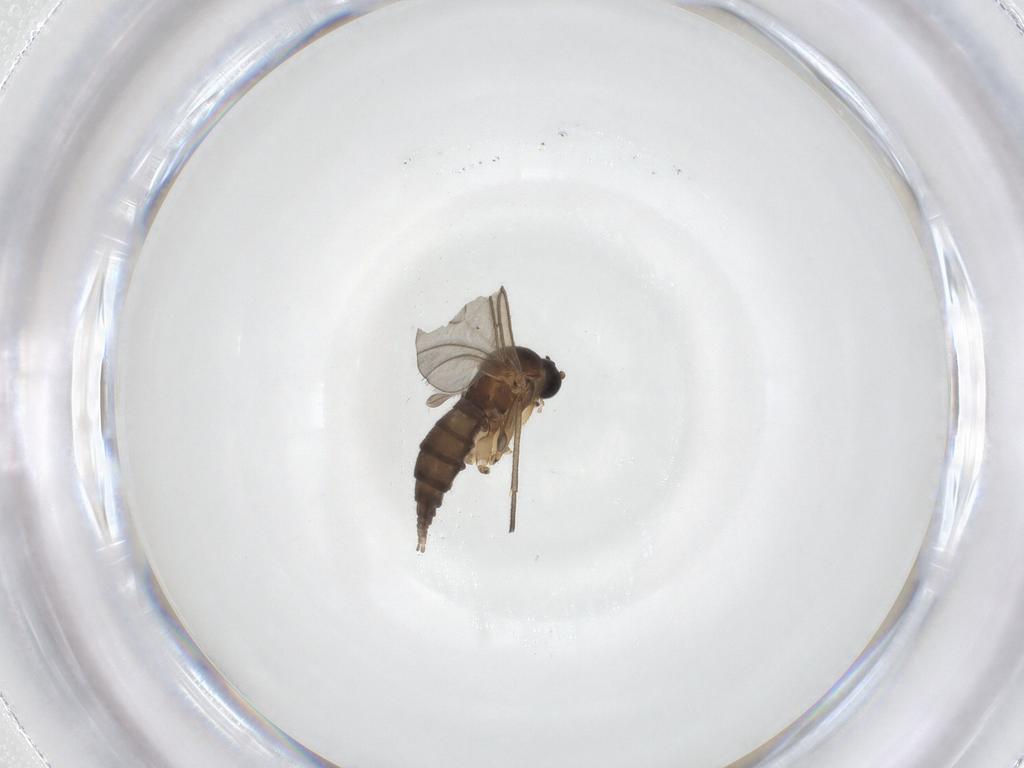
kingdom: Animalia
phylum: Arthropoda
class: Insecta
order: Diptera
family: Sciaridae
